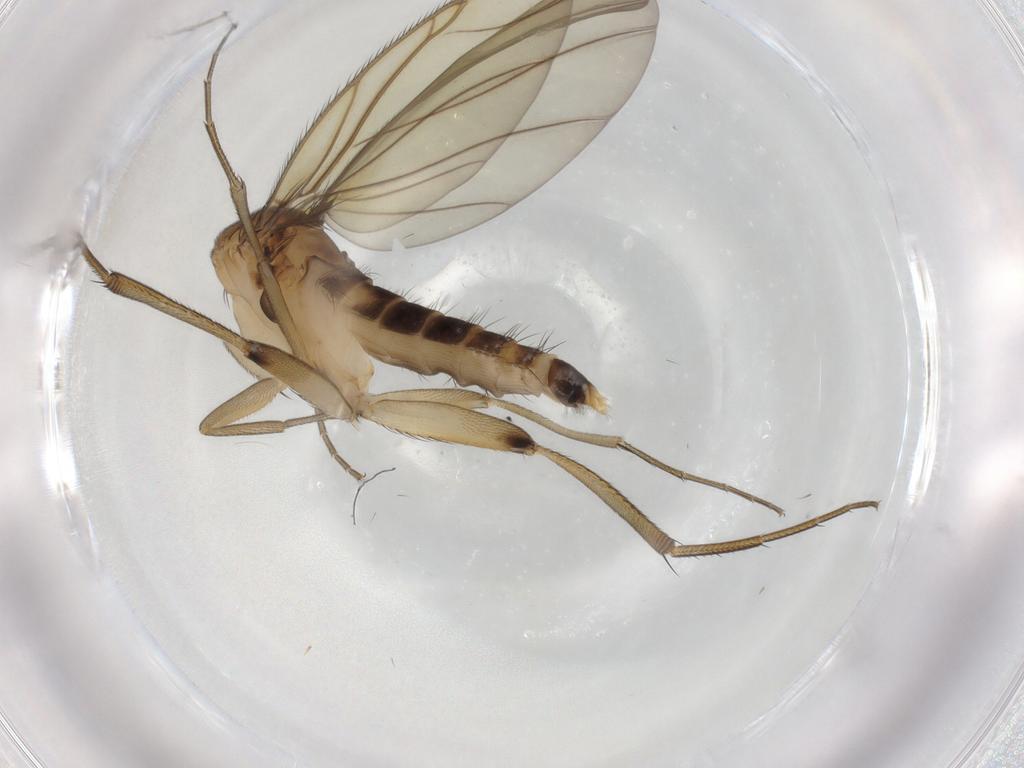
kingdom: Animalia
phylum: Arthropoda
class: Insecta
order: Diptera
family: Phoridae
